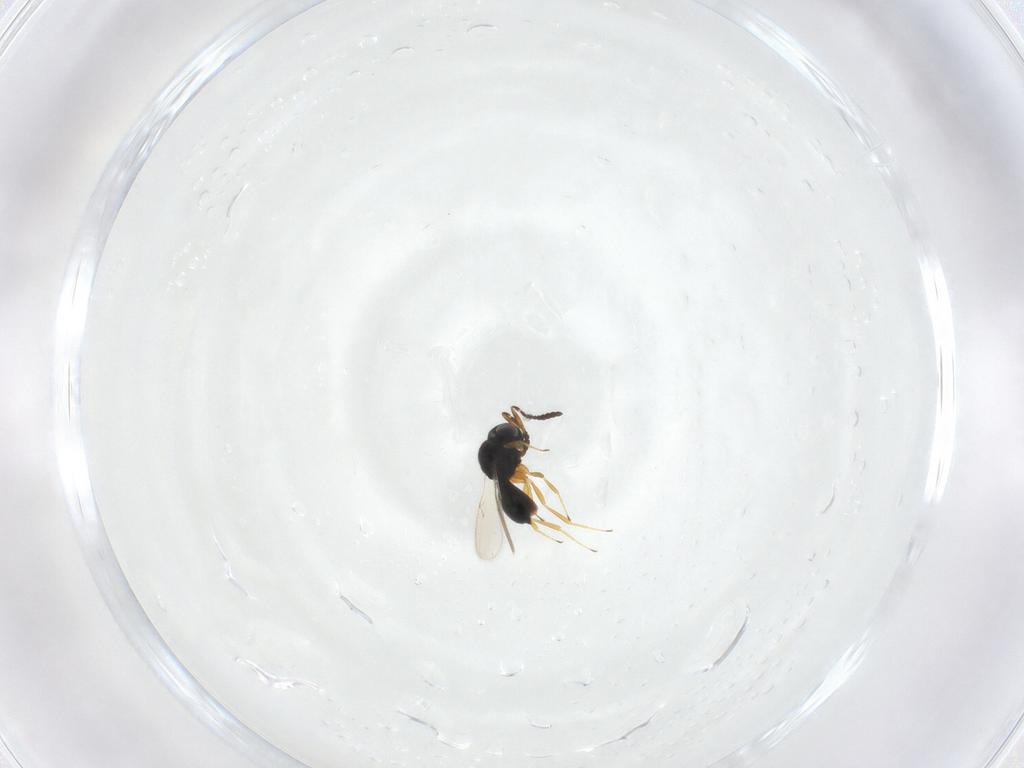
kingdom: Animalia
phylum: Arthropoda
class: Insecta
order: Hymenoptera
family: Scelionidae
